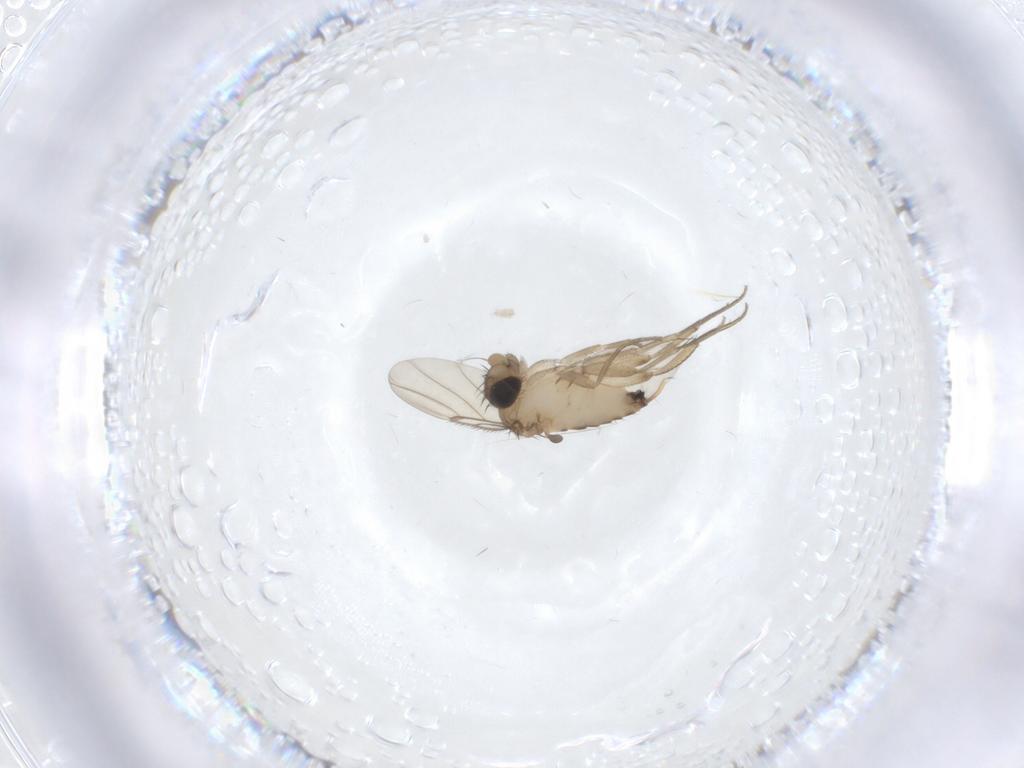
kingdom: Animalia
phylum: Arthropoda
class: Insecta
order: Diptera
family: Phoridae
